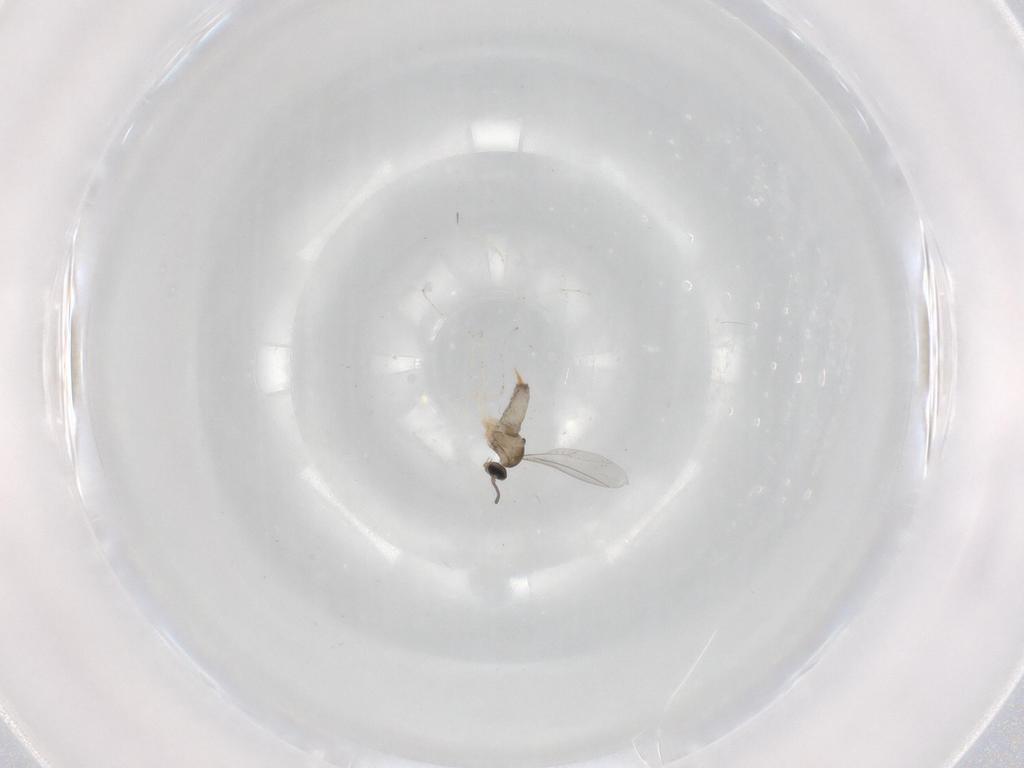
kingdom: Animalia
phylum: Arthropoda
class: Insecta
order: Diptera
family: Cecidomyiidae
